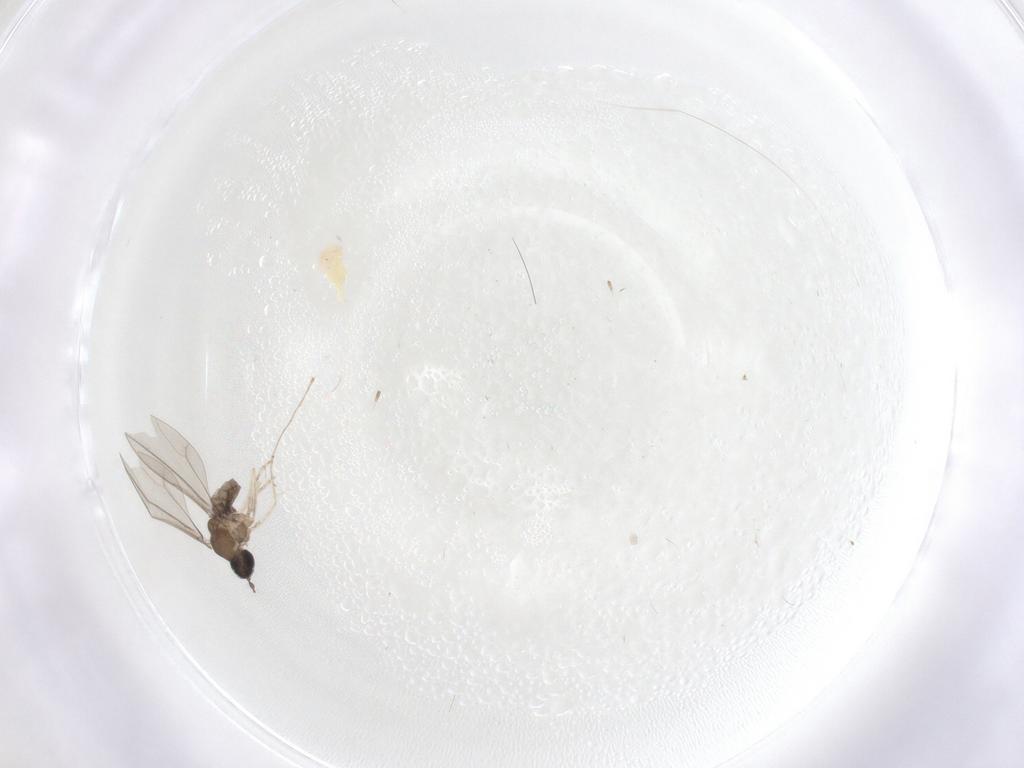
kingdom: Animalia
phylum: Arthropoda
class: Insecta
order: Diptera
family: Cecidomyiidae
